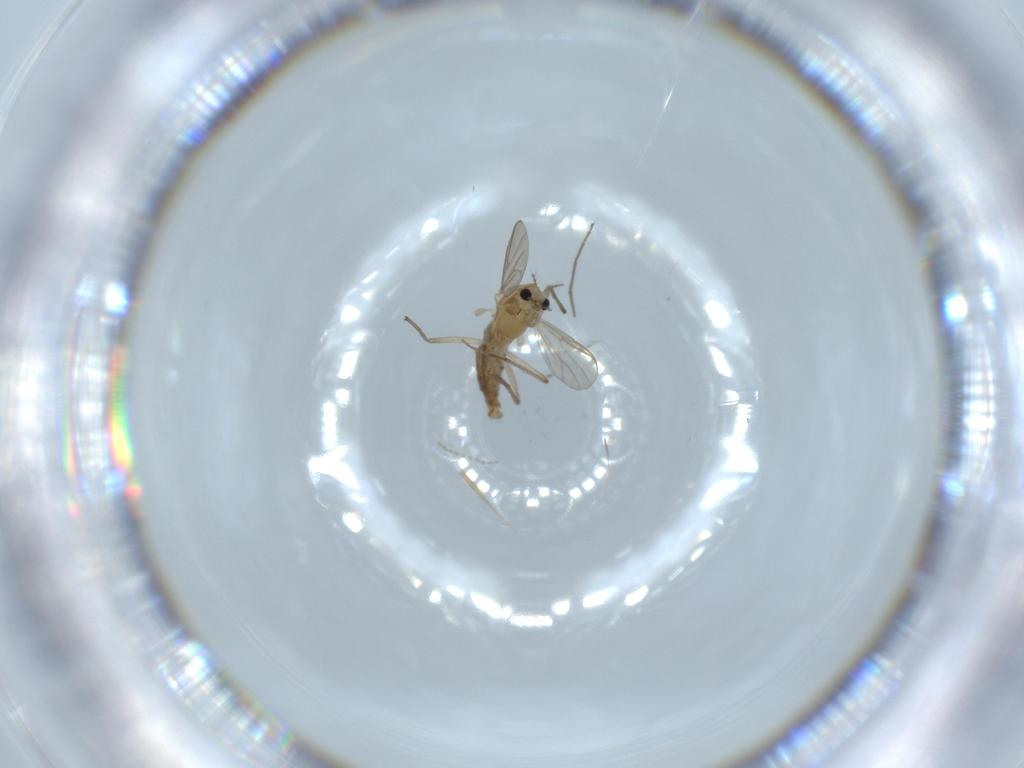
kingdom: Animalia
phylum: Arthropoda
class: Insecta
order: Diptera
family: Chironomidae
